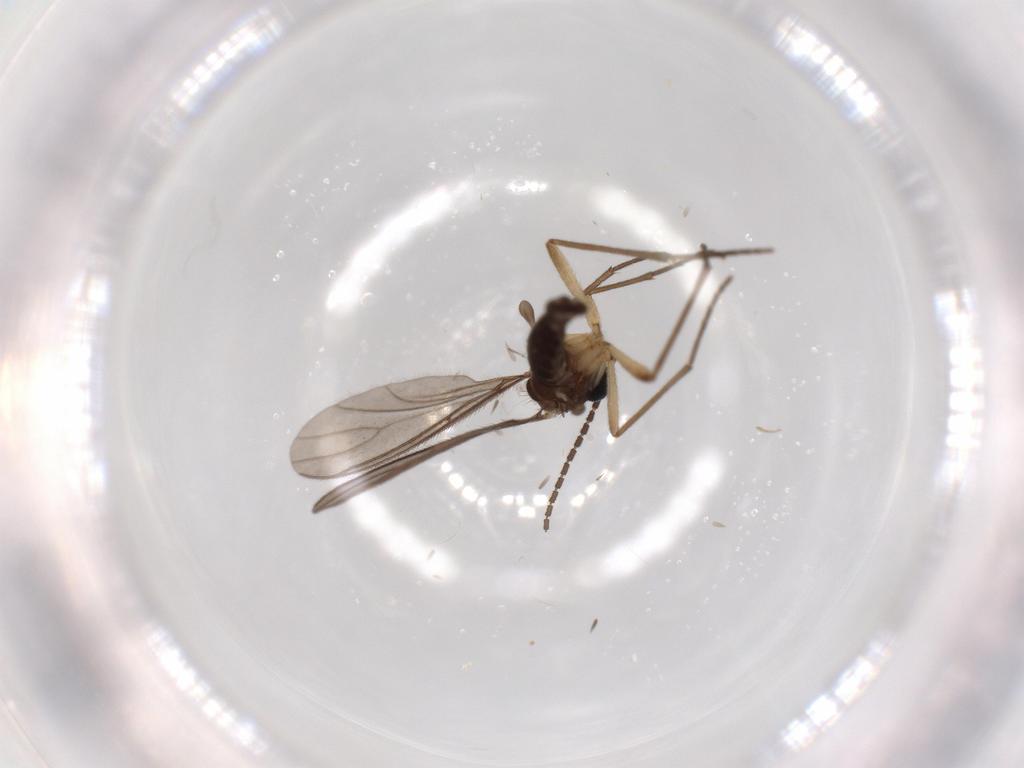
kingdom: Animalia
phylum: Arthropoda
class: Insecta
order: Diptera
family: Sciaridae
